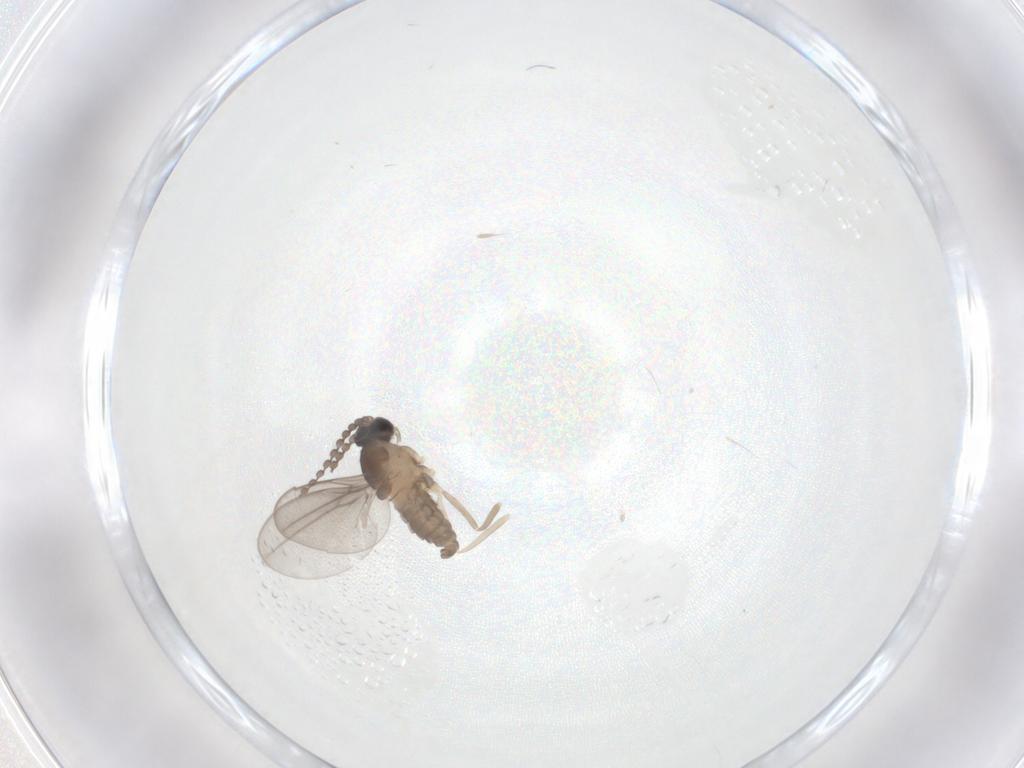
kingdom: Animalia
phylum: Arthropoda
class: Insecta
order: Diptera
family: Cecidomyiidae
